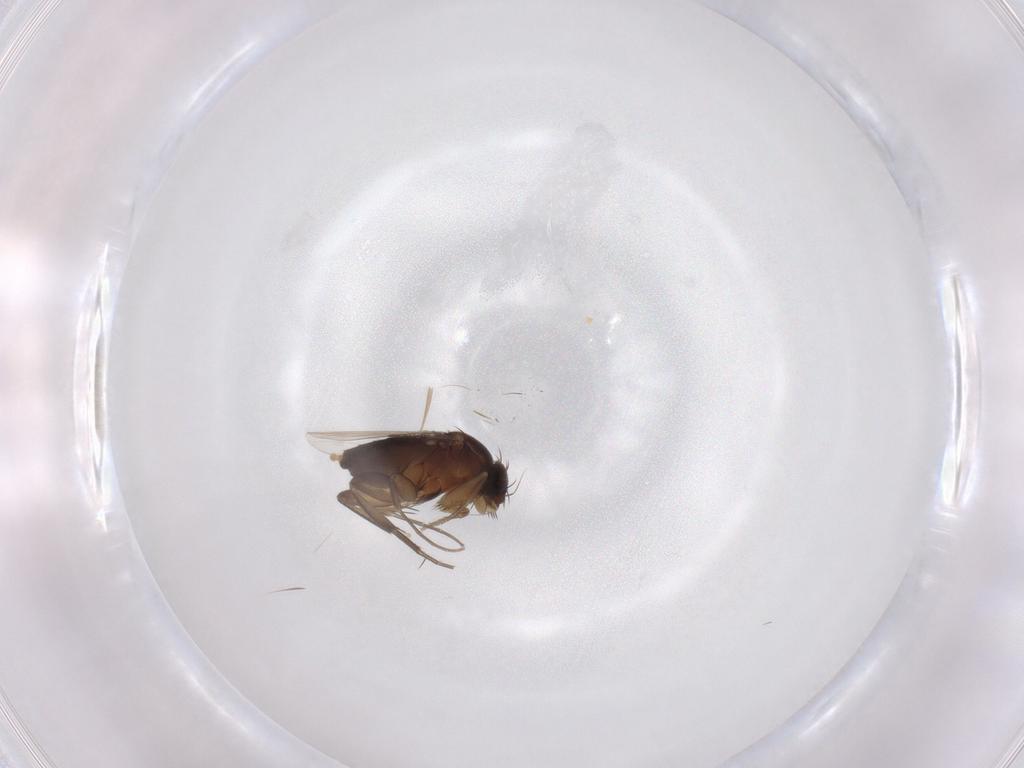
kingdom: Animalia
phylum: Arthropoda
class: Insecta
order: Diptera
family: Phoridae
